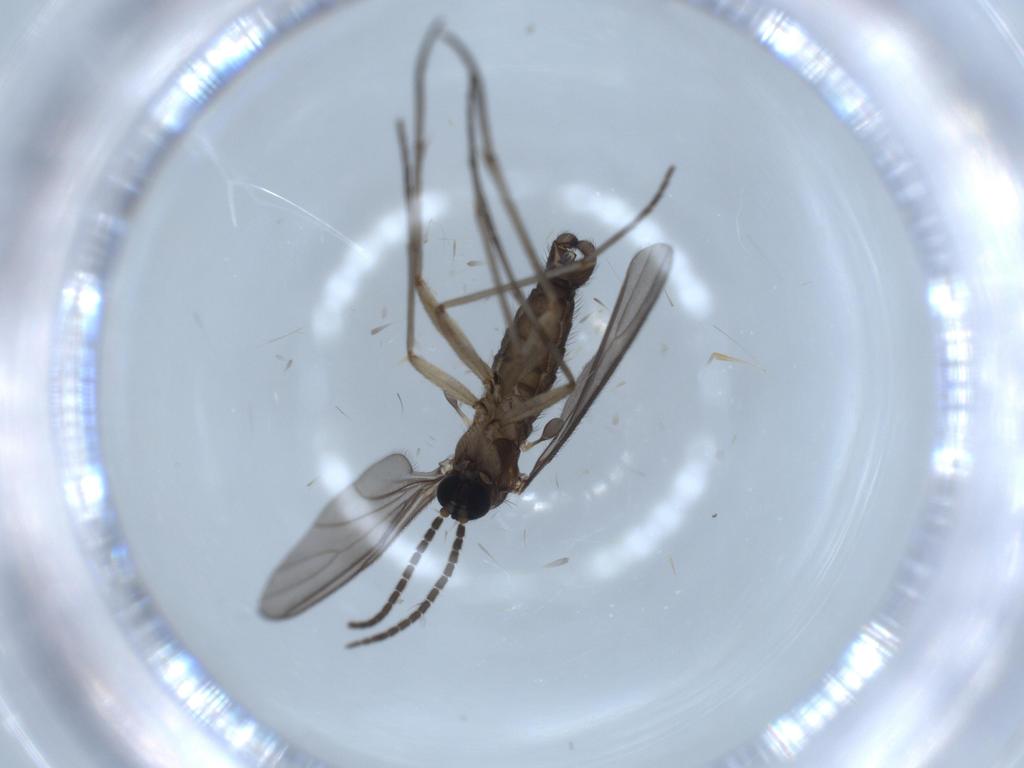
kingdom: Animalia
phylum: Arthropoda
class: Insecta
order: Diptera
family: Sciaridae
